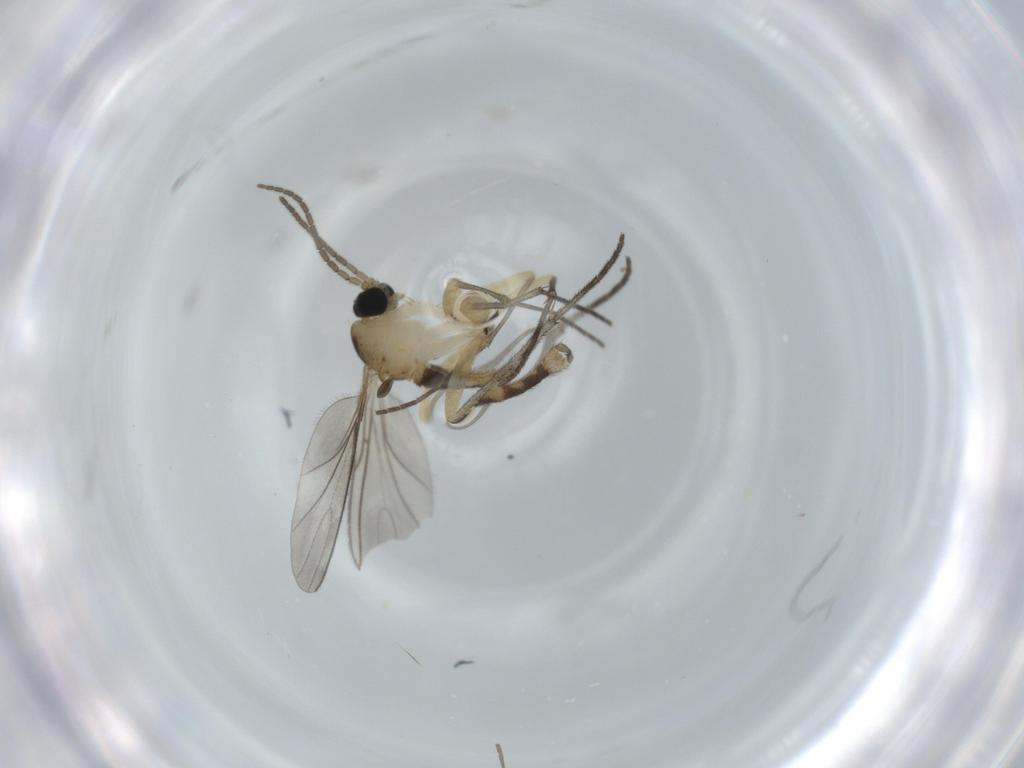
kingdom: Animalia
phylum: Arthropoda
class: Insecta
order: Diptera
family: Sciaridae
